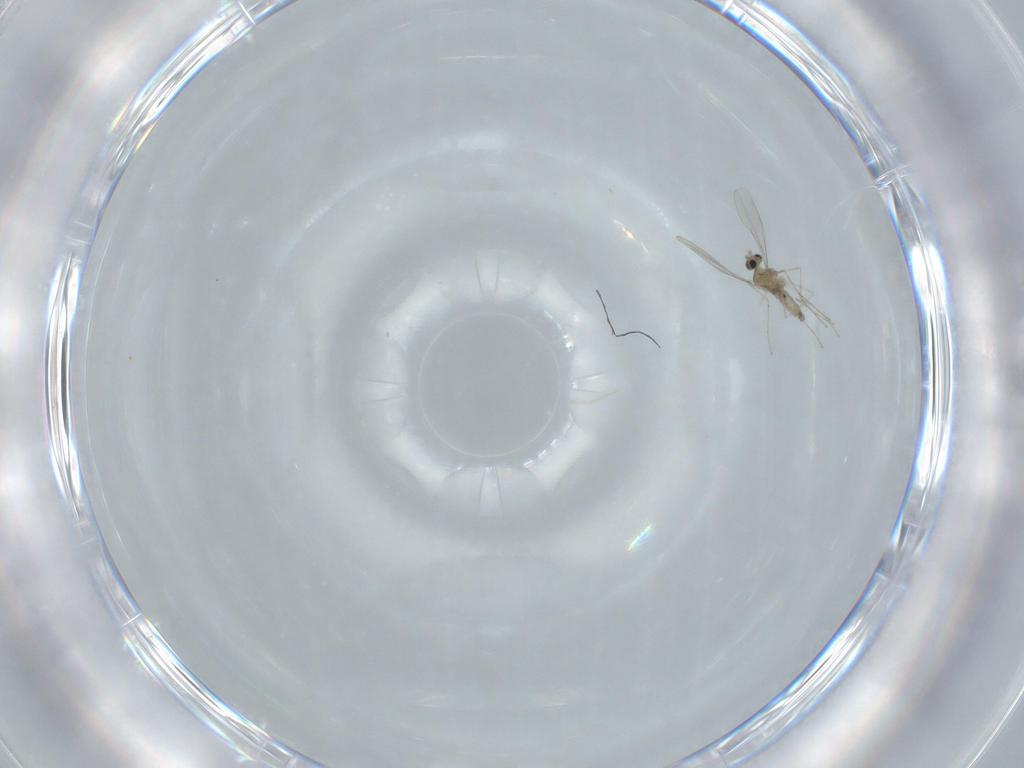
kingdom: Animalia
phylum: Arthropoda
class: Insecta
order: Diptera
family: Cecidomyiidae
